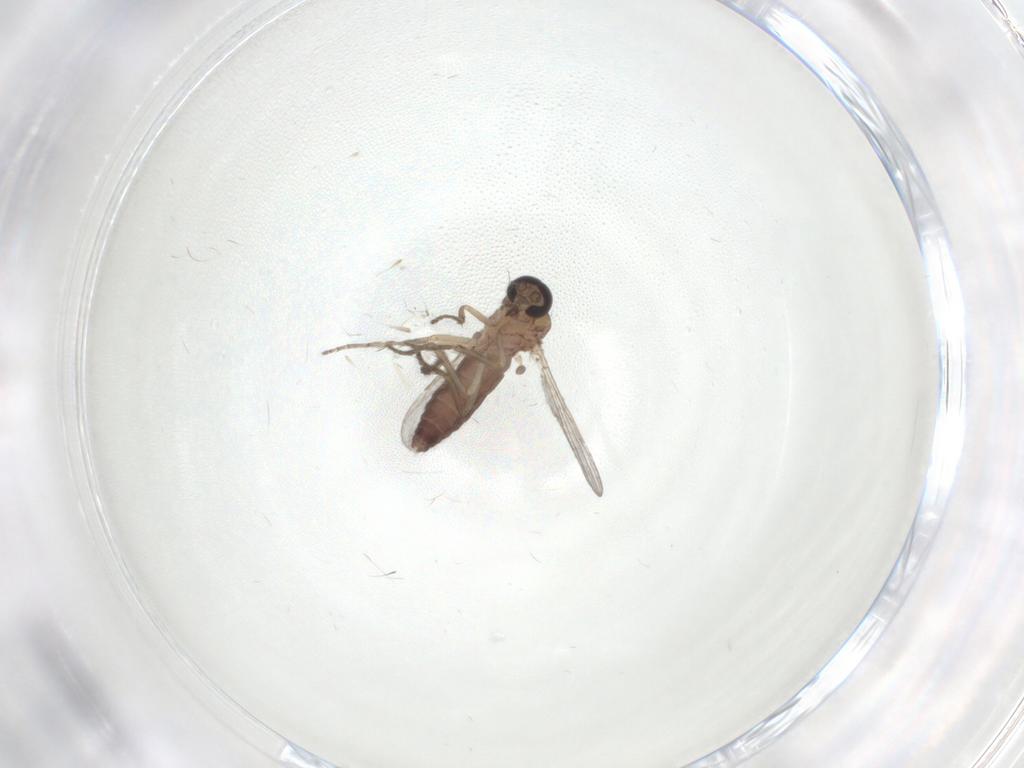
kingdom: Animalia
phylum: Arthropoda
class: Insecta
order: Diptera
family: Ceratopogonidae
